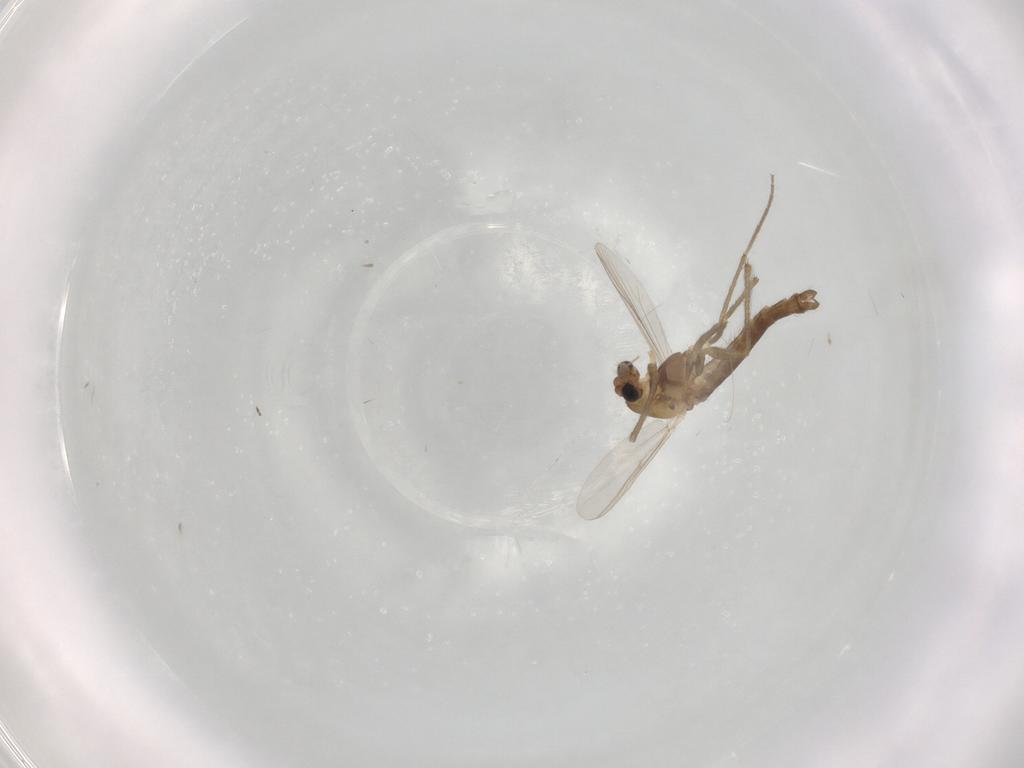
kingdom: Animalia
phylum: Arthropoda
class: Insecta
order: Diptera
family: Chironomidae
